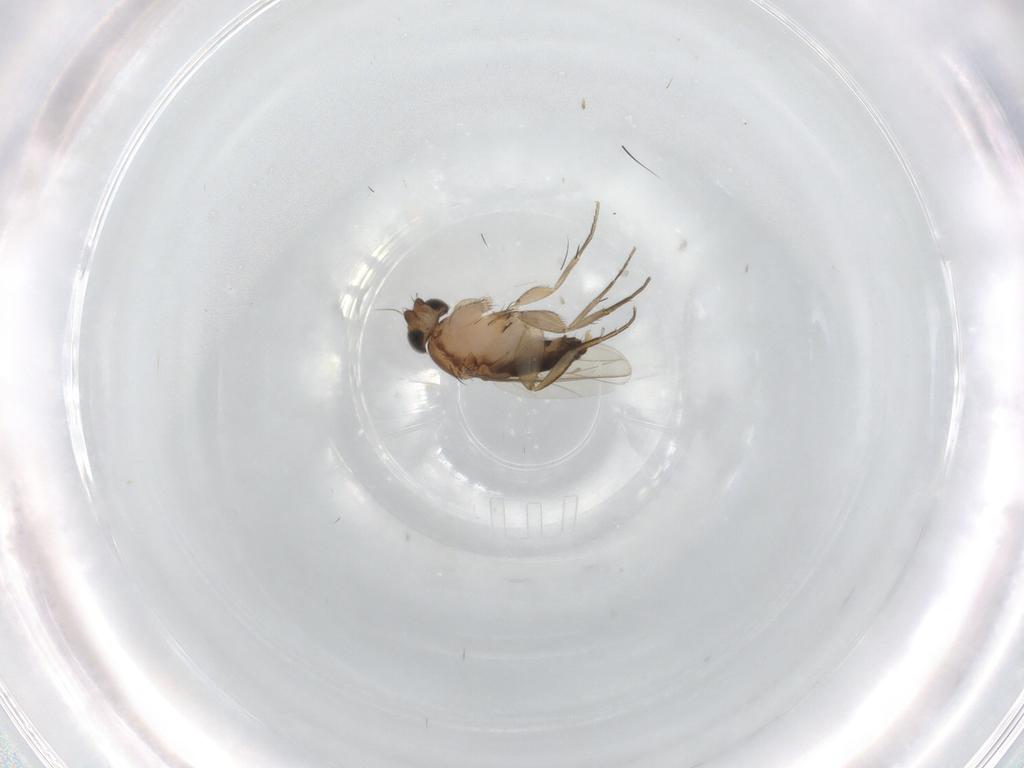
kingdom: Animalia
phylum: Arthropoda
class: Insecta
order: Diptera
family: Phoridae
